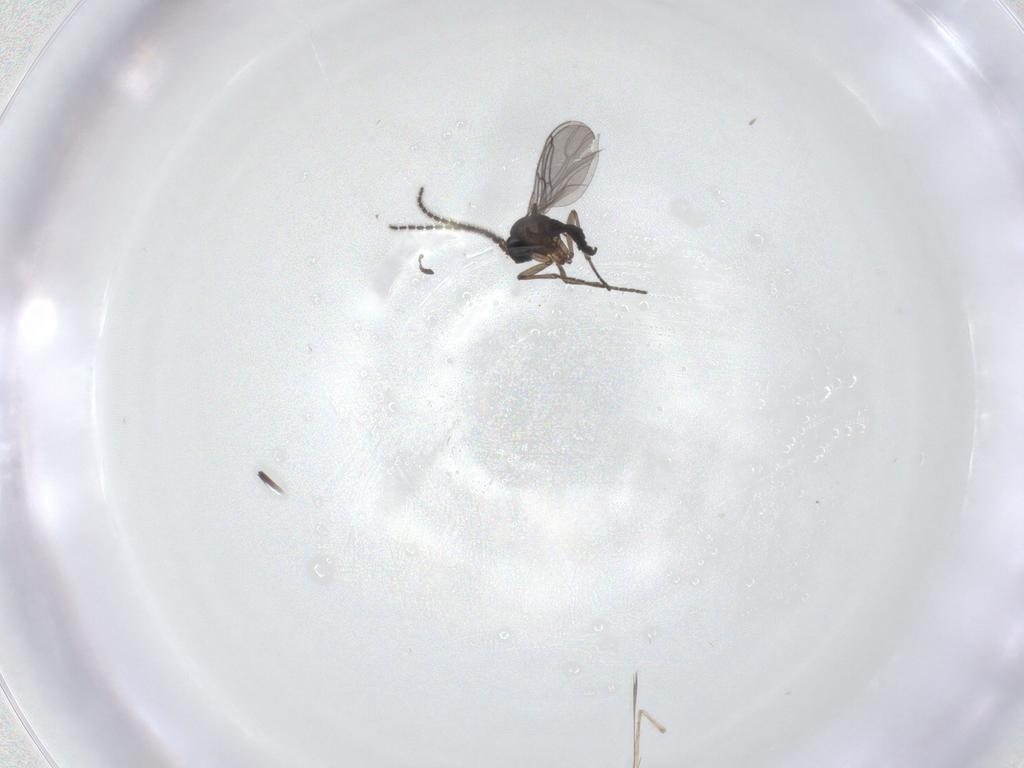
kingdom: Animalia
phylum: Arthropoda
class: Insecta
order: Diptera
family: Sciaridae
